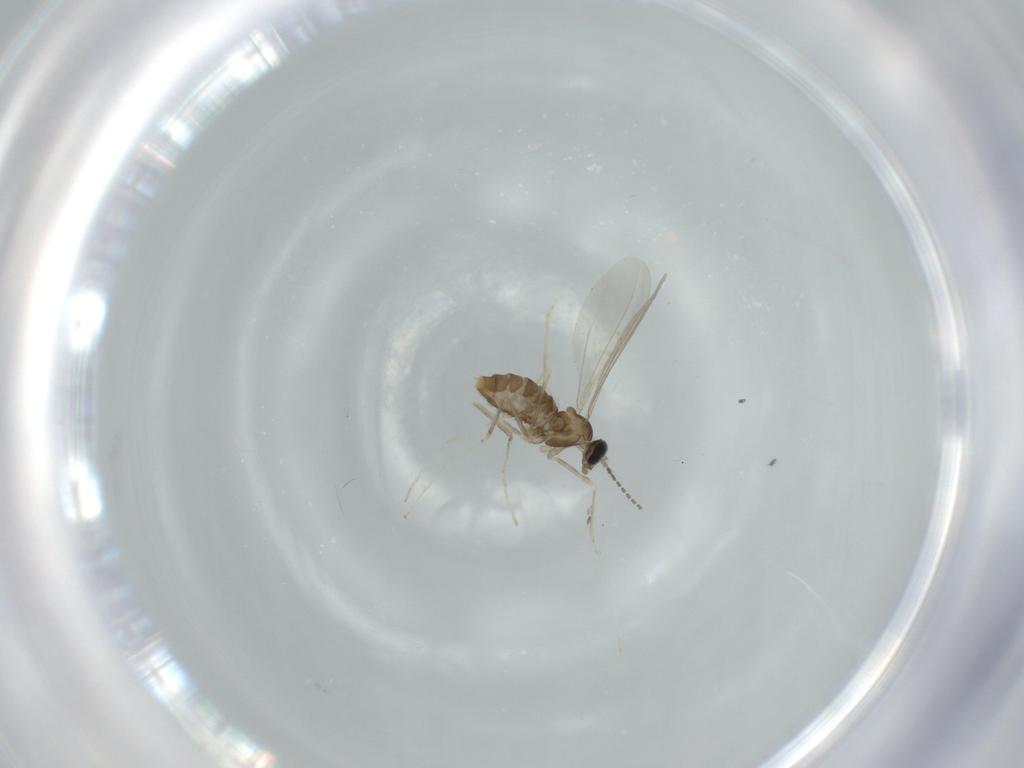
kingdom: Animalia
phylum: Arthropoda
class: Insecta
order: Diptera
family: Cecidomyiidae
